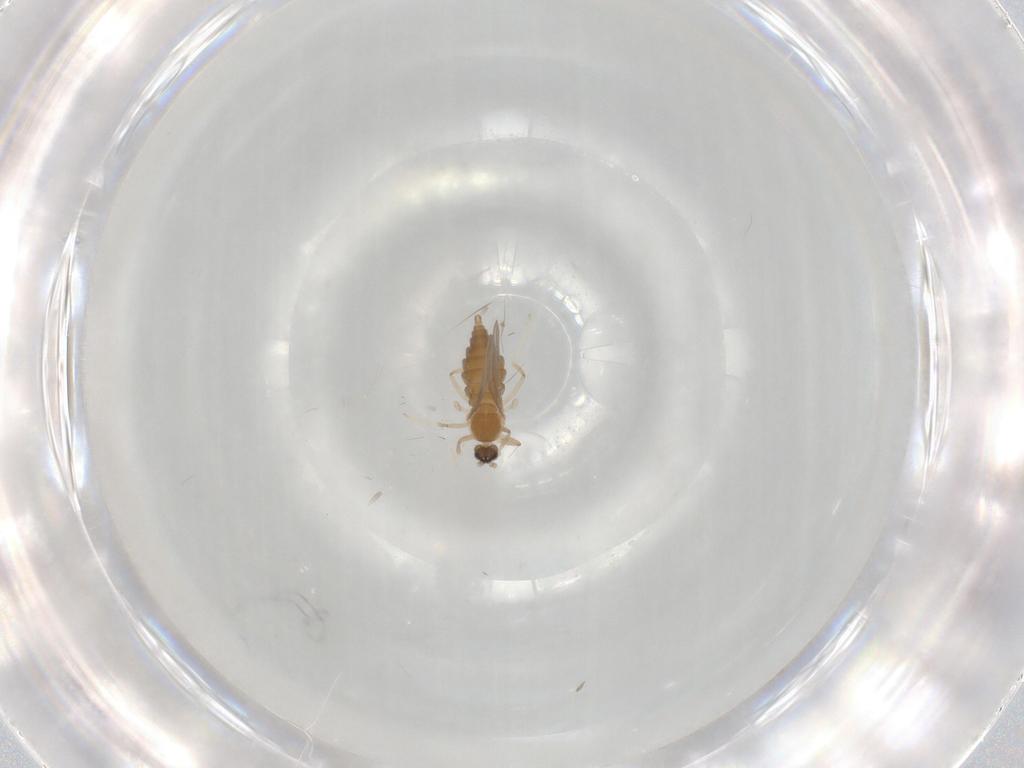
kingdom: Animalia
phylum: Arthropoda
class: Insecta
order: Diptera
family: Cecidomyiidae
